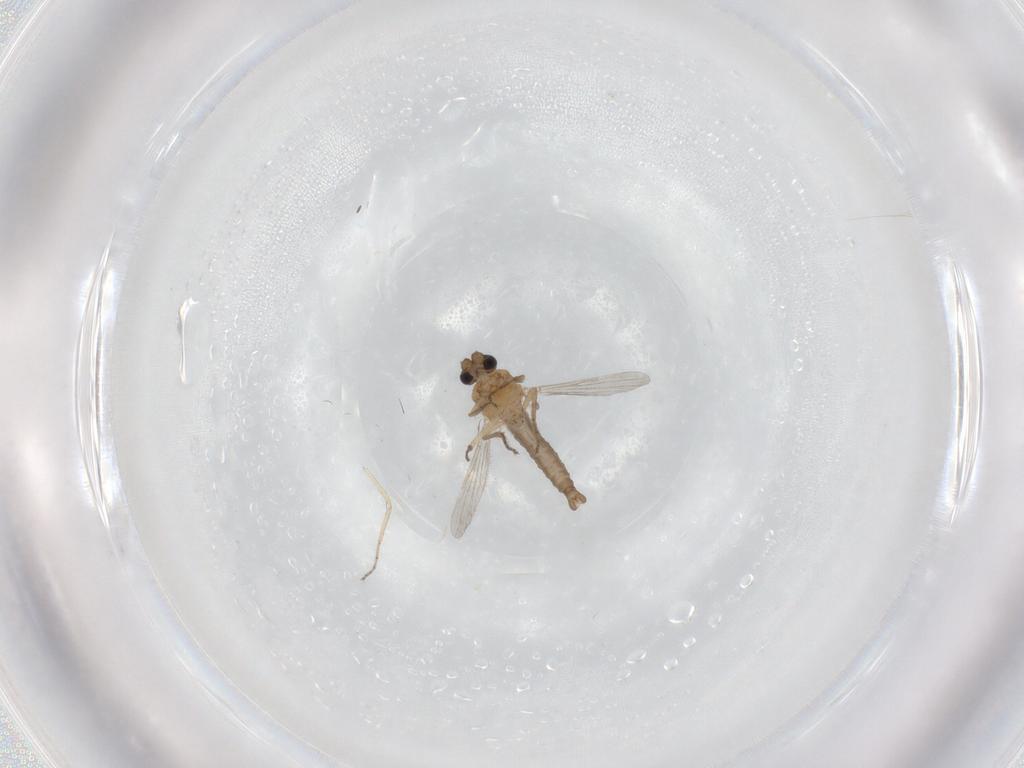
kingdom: Animalia
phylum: Arthropoda
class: Insecta
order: Diptera
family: Ceratopogonidae
